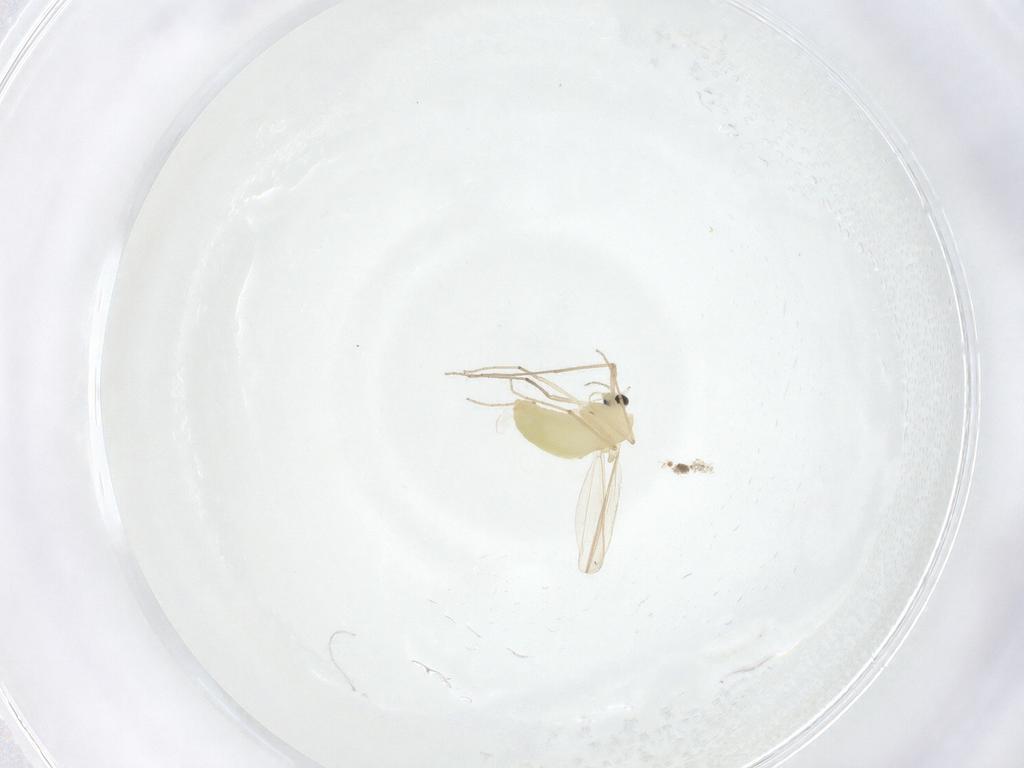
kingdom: Animalia
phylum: Arthropoda
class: Insecta
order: Diptera
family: Chironomidae
